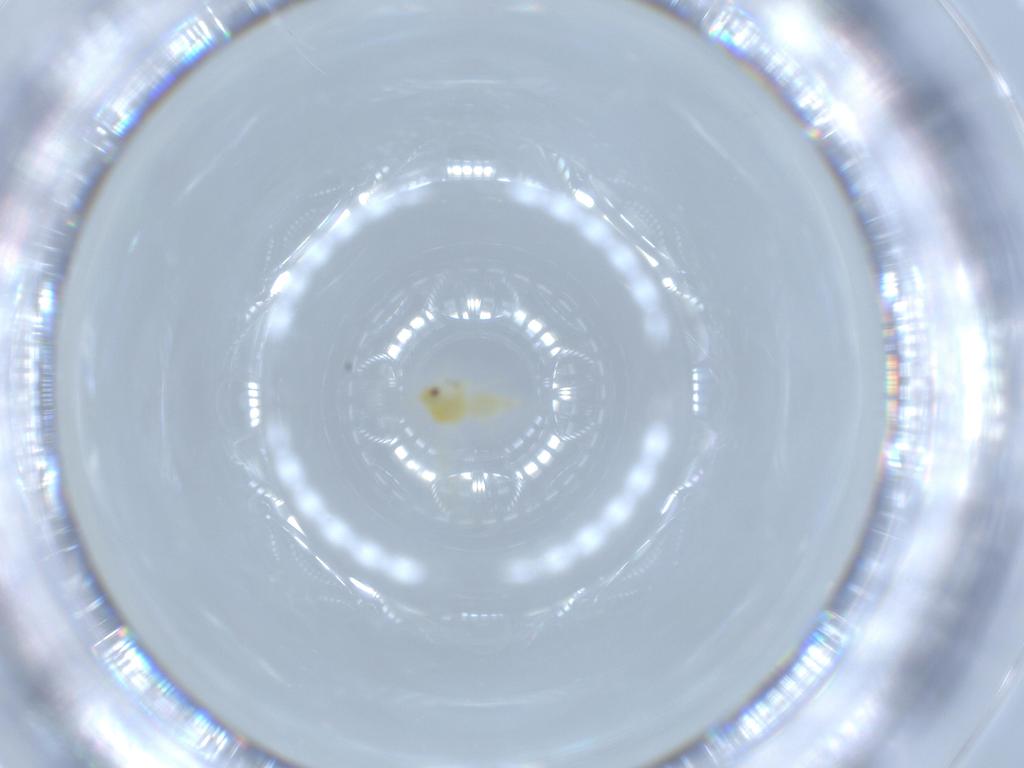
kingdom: Animalia
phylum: Arthropoda
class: Insecta
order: Hemiptera
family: Aleyrodidae
